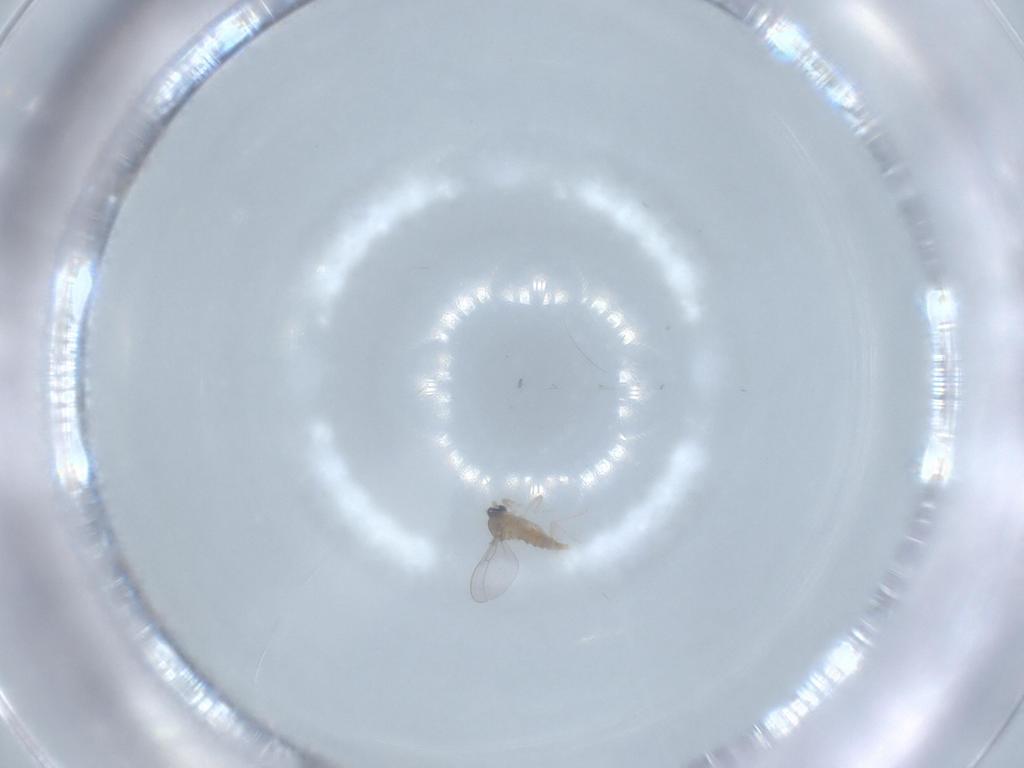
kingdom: Animalia
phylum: Arthropoda
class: Insecta
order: Diptera
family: Cecidomyiidae
